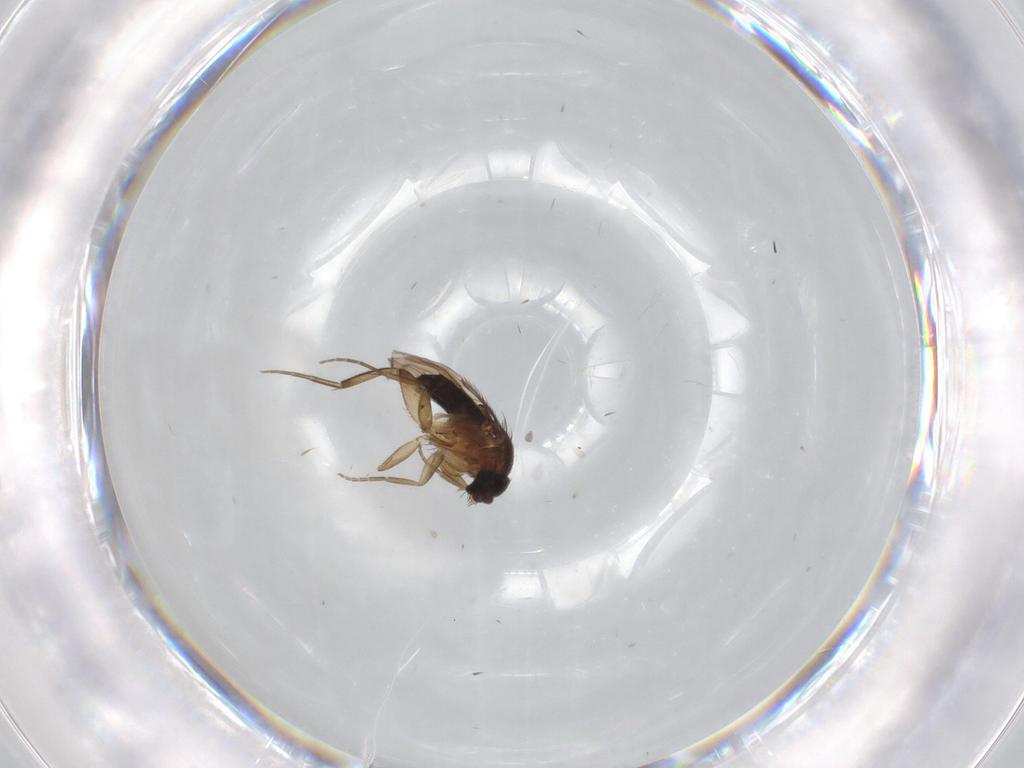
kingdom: Animalia
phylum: Arthropoda
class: Insecta
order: Diptera
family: Phoridae
